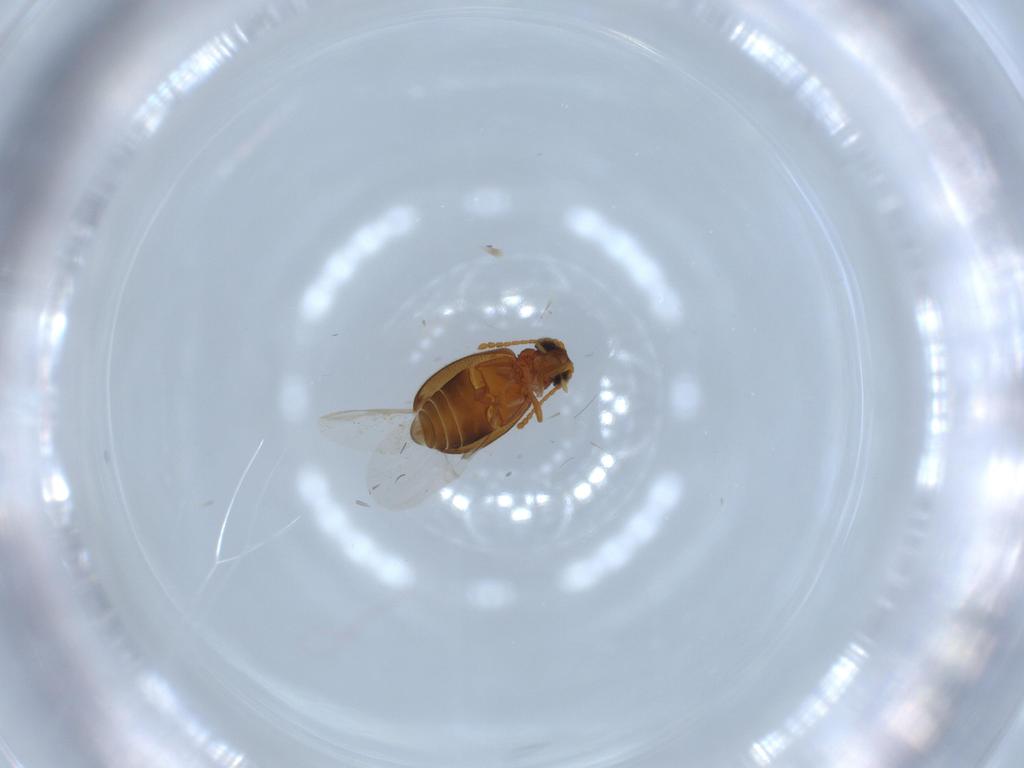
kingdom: Animalia
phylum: Arthropoda
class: Insecta
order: Coleoptera
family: Aderidae
